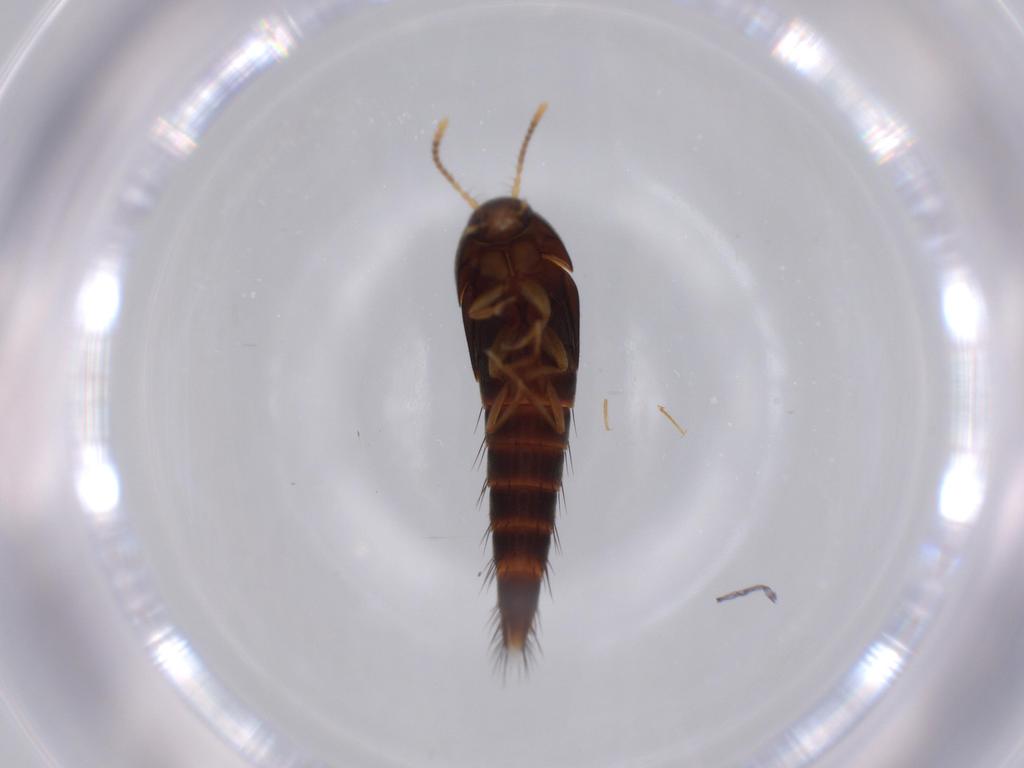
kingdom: Animalia
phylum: Arthropoda
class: Insecta
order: Coleoptera
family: Staphylinidae
